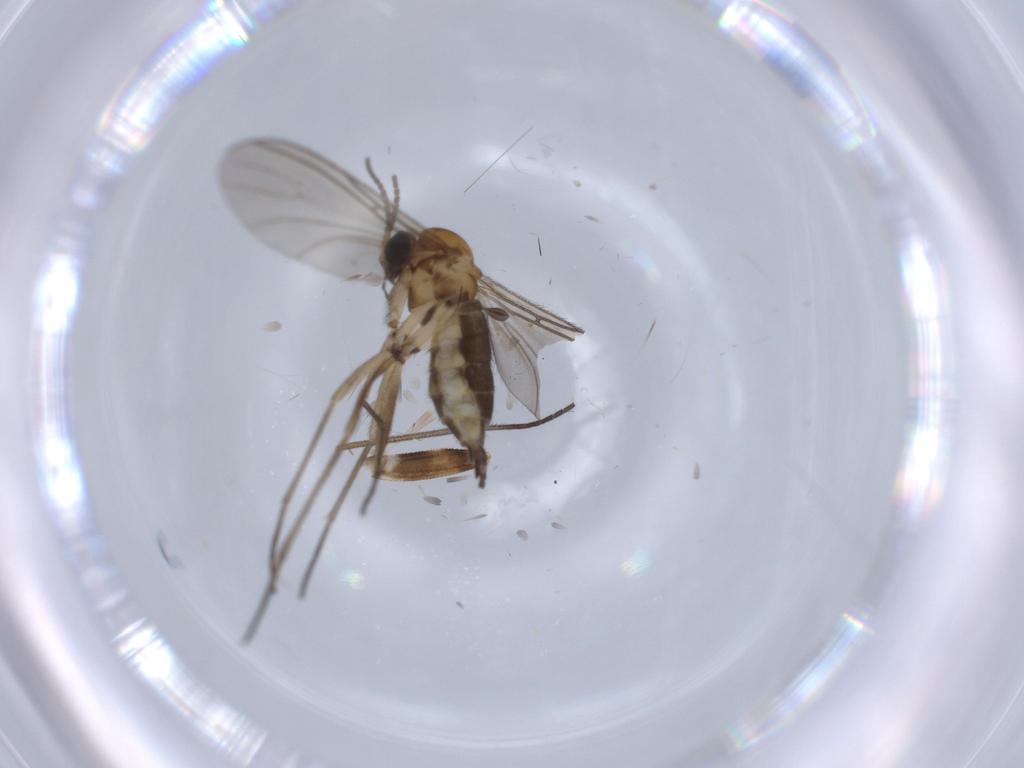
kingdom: Animalia
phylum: Arthropoda
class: Insecta
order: Diptera
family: Sciaridae
